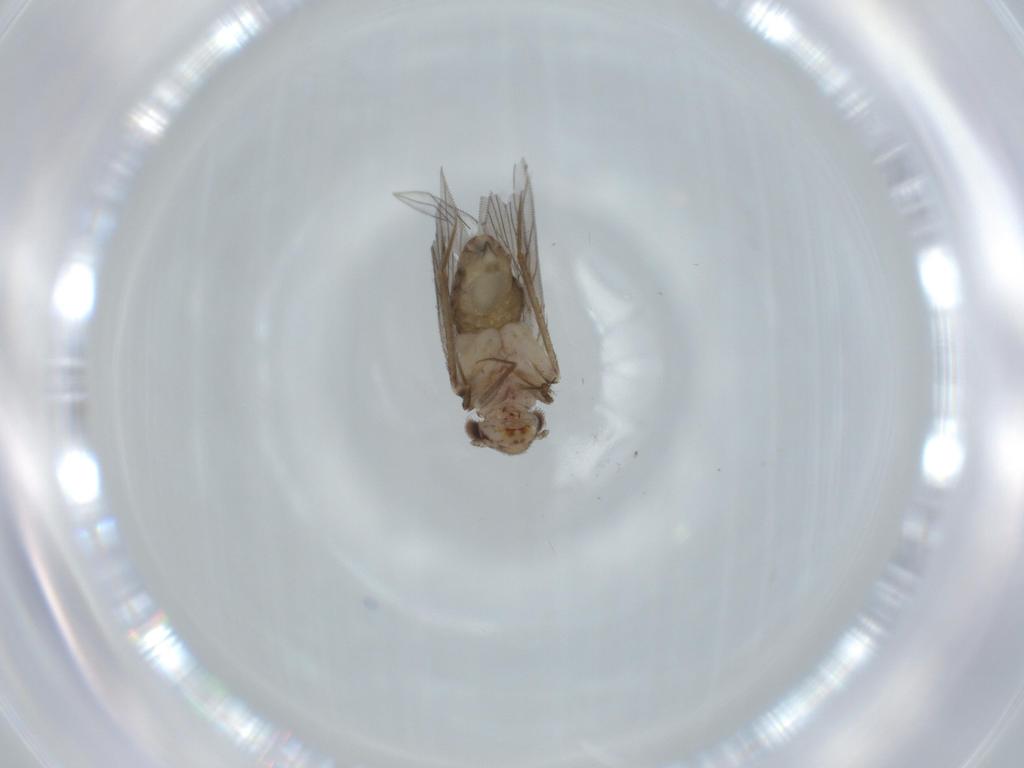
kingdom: Animalia
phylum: Arthropoda
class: Insecta
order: Psocodea
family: Lepidopsocidae
